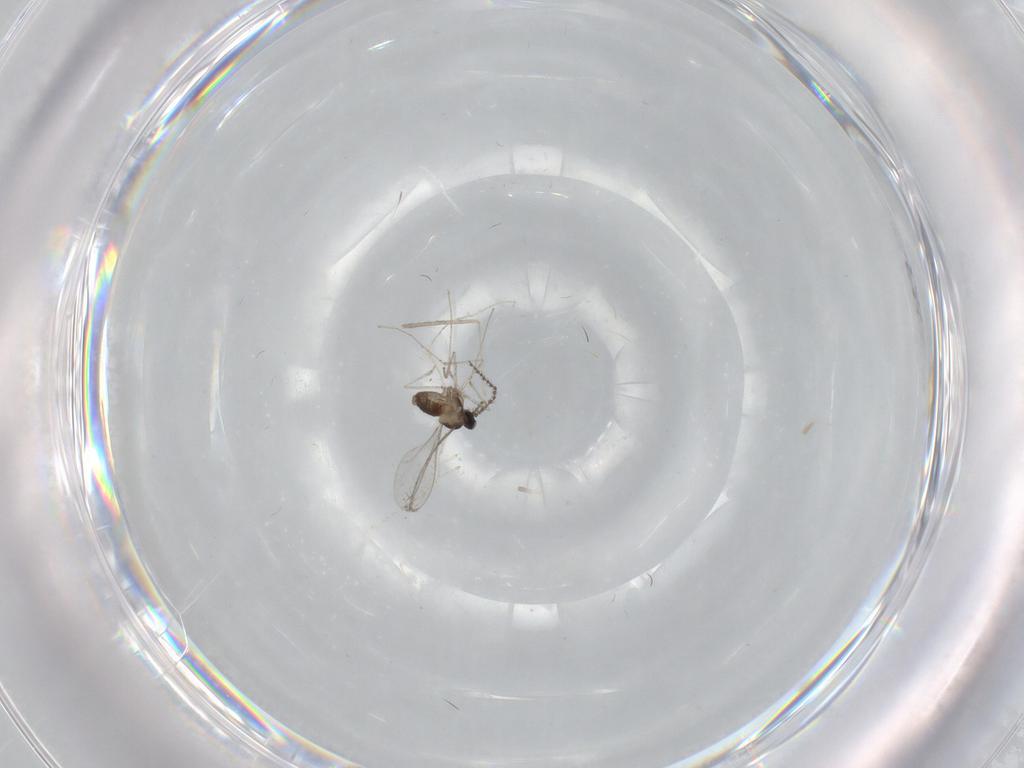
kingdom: Animalia
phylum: Arthropoda
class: Insecta
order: Diptera
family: Cecidomyiidae
